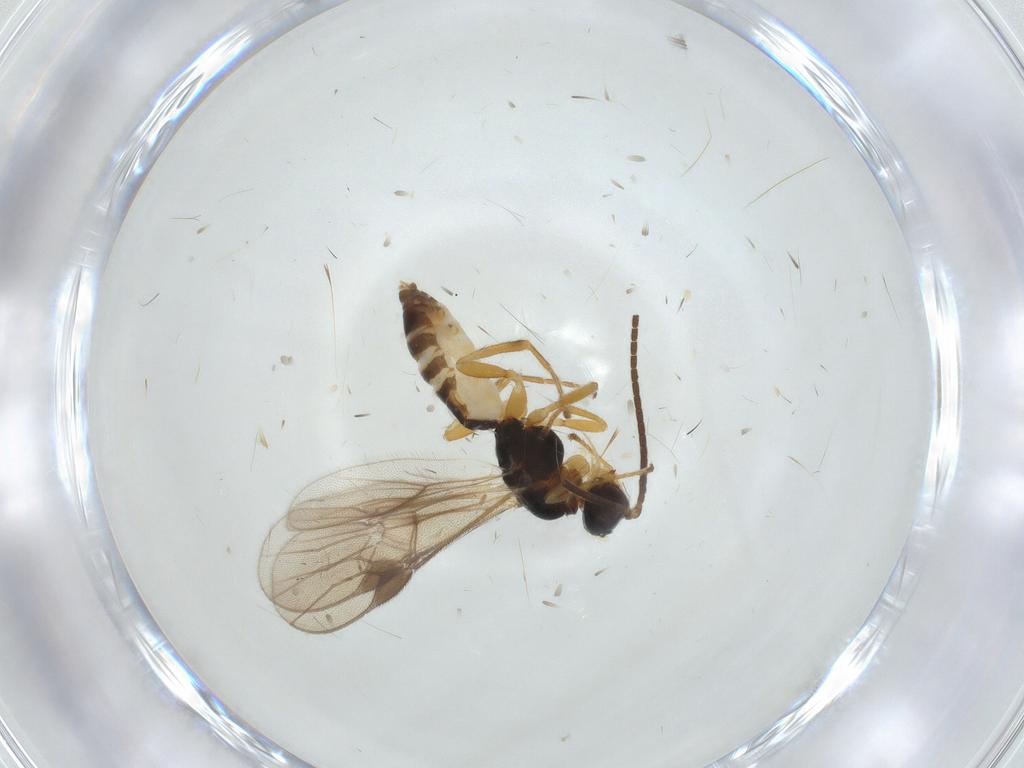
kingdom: Animalia
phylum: Arthropoda
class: Insecta
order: Hymenoptera
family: Braconidae
